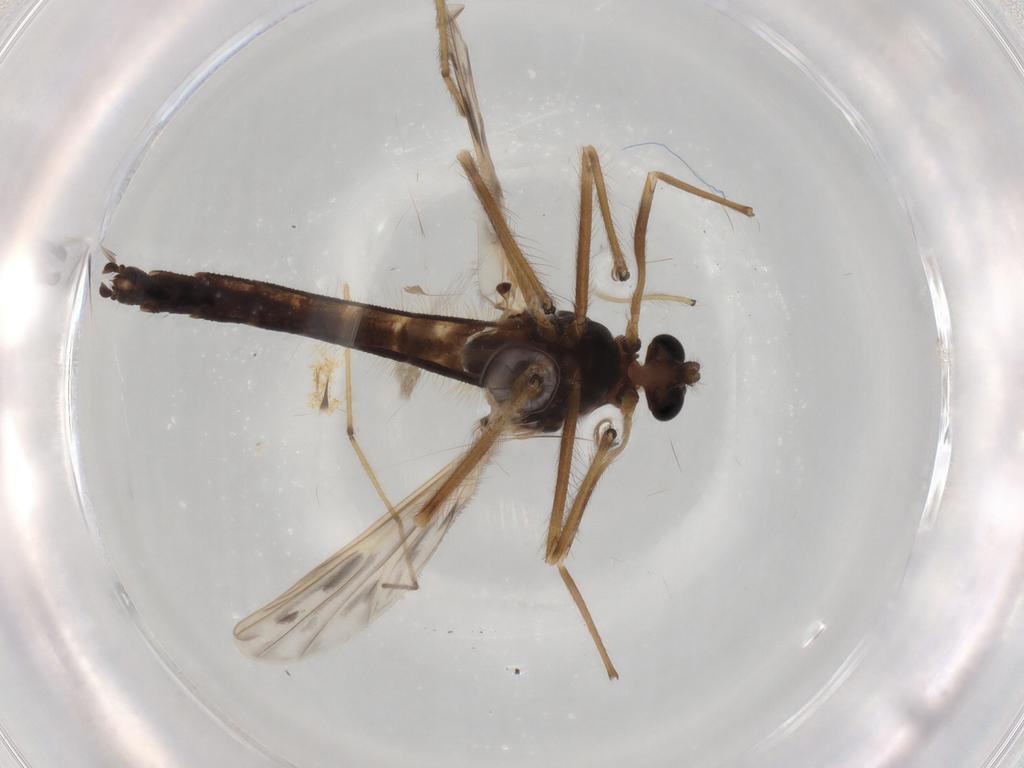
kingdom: Animalia
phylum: Arthropoda
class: Insecta
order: Diptera
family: Chironomidae
